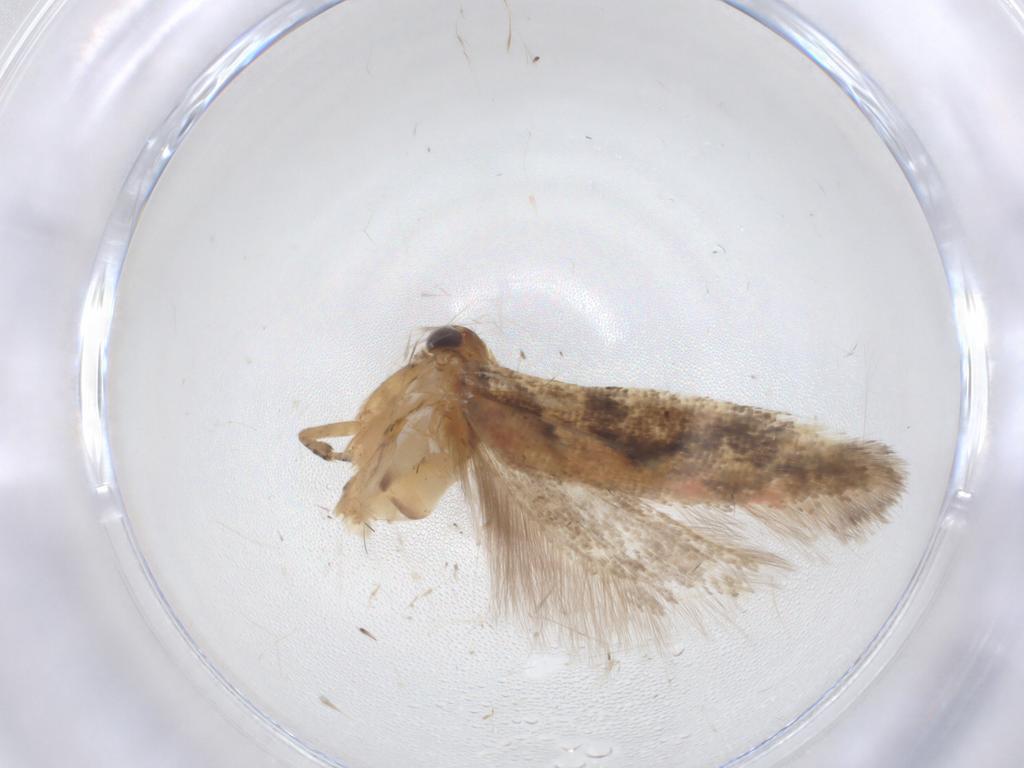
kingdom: Animalia
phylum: Arthropoda
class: Insecta
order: Lepidoptera
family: Gelechiidae
